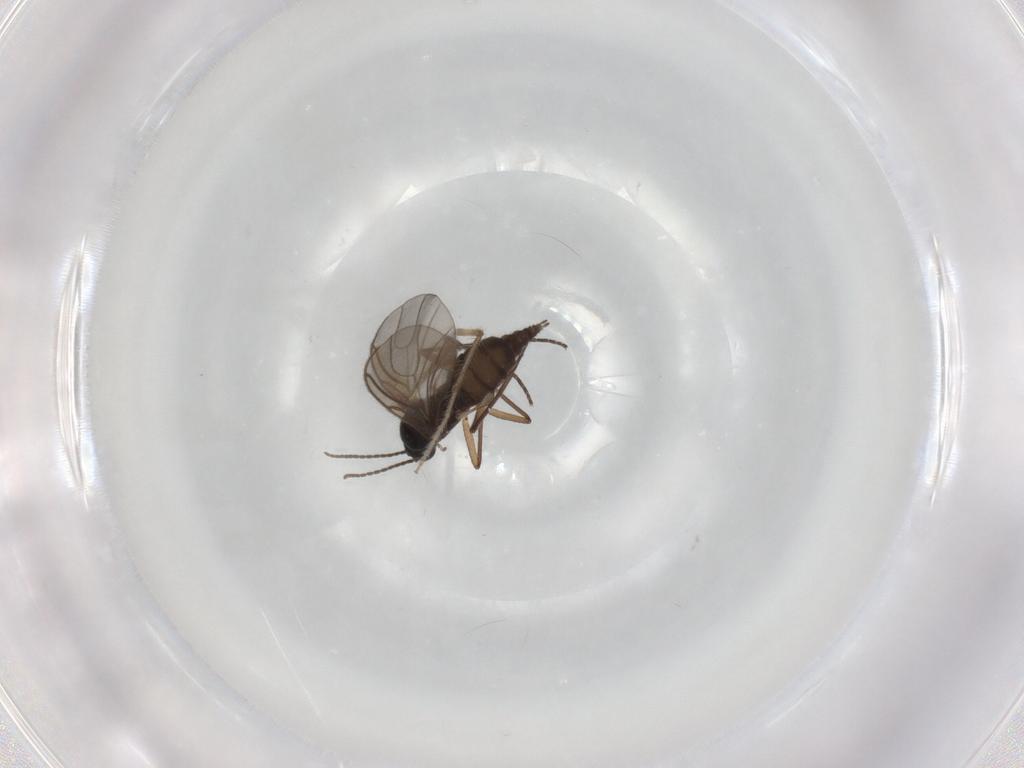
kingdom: Animalia
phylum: Arthropoda
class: Insecta
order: Diptera
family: Sciaridae
